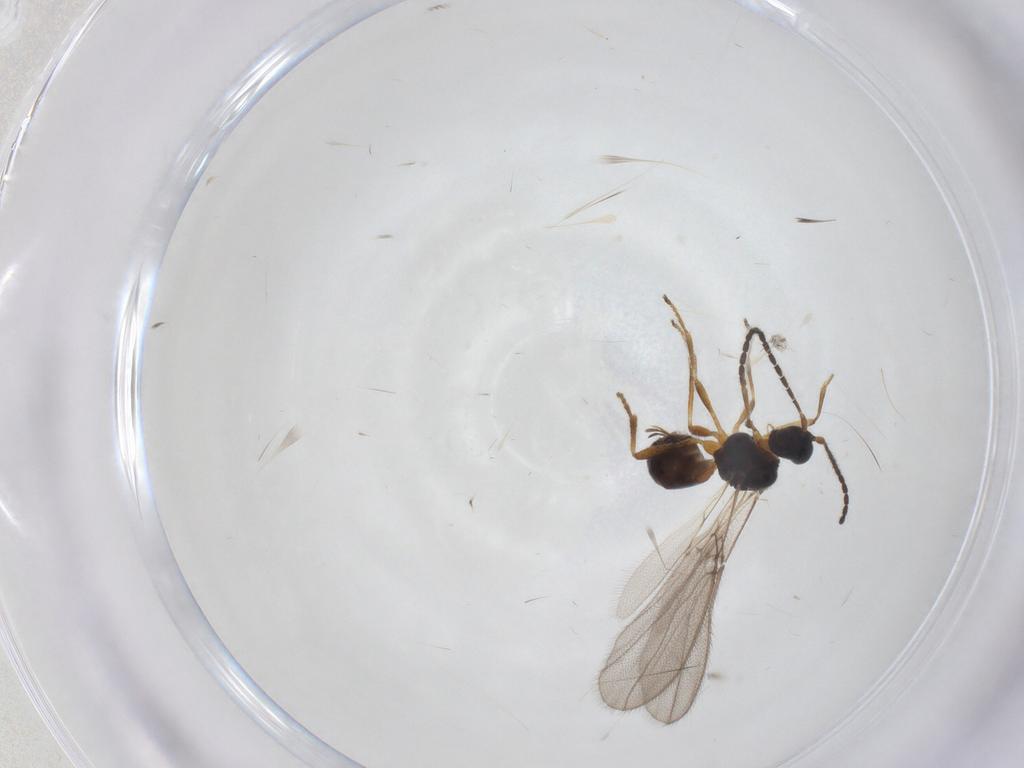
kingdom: Animalia
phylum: Arthropoda
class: Insecta
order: Hymenoptera
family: Braconidae
